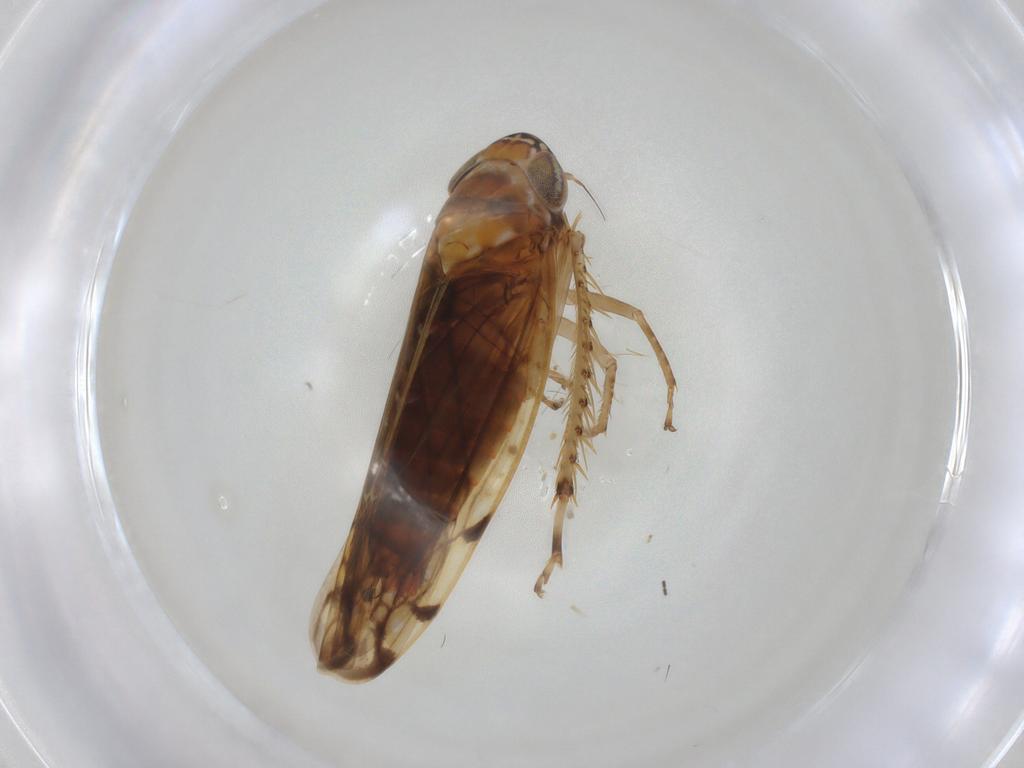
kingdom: Animalia
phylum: Arthropoda
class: Insecta
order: Hemiptera
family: Cicadellidae
